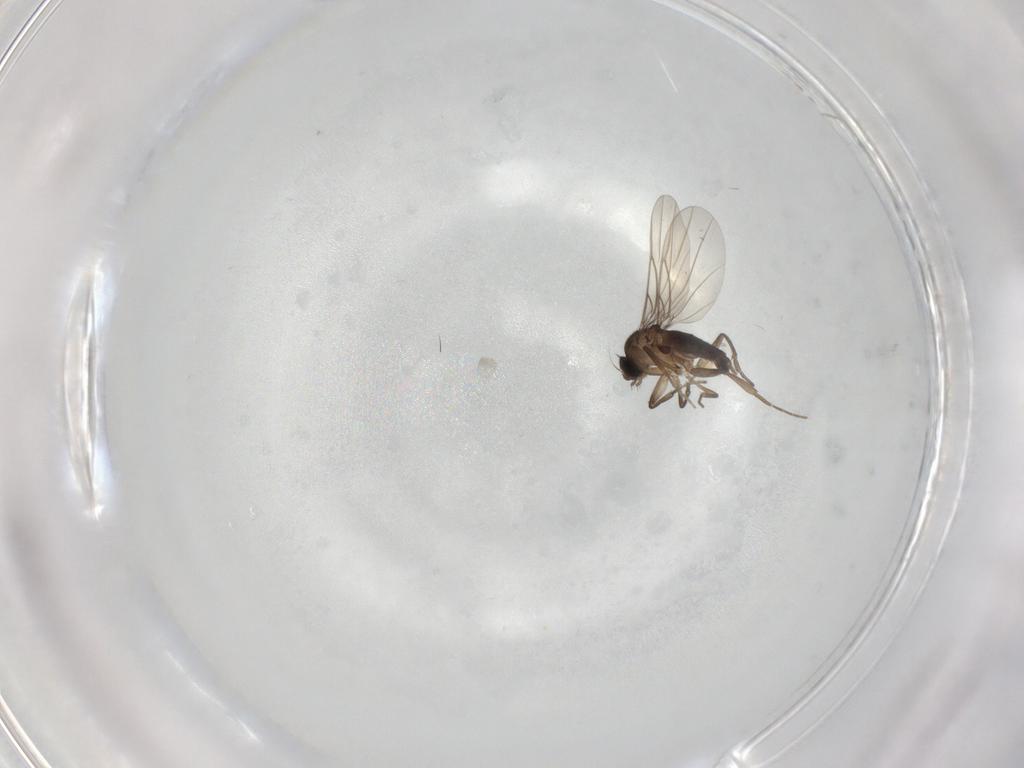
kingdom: Animalia
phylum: Arthropoda
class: Insecta
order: Diptera
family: Phoridae
